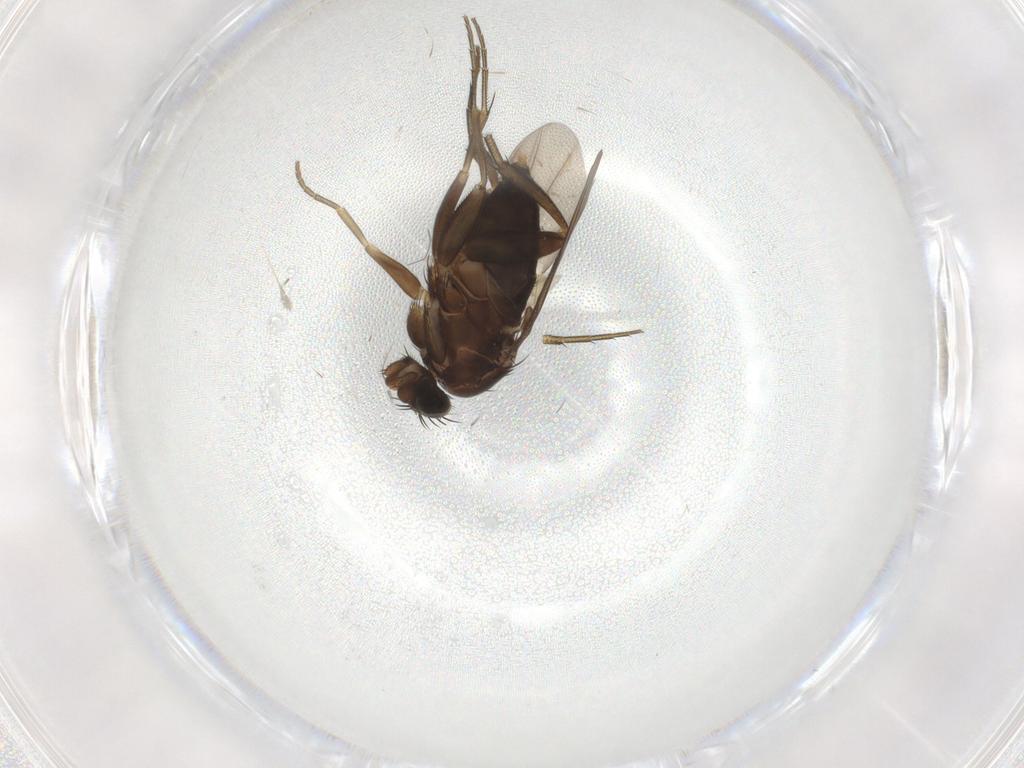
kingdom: Animalia
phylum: Arthropoda
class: Insecta
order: Diptera
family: Phoridae
